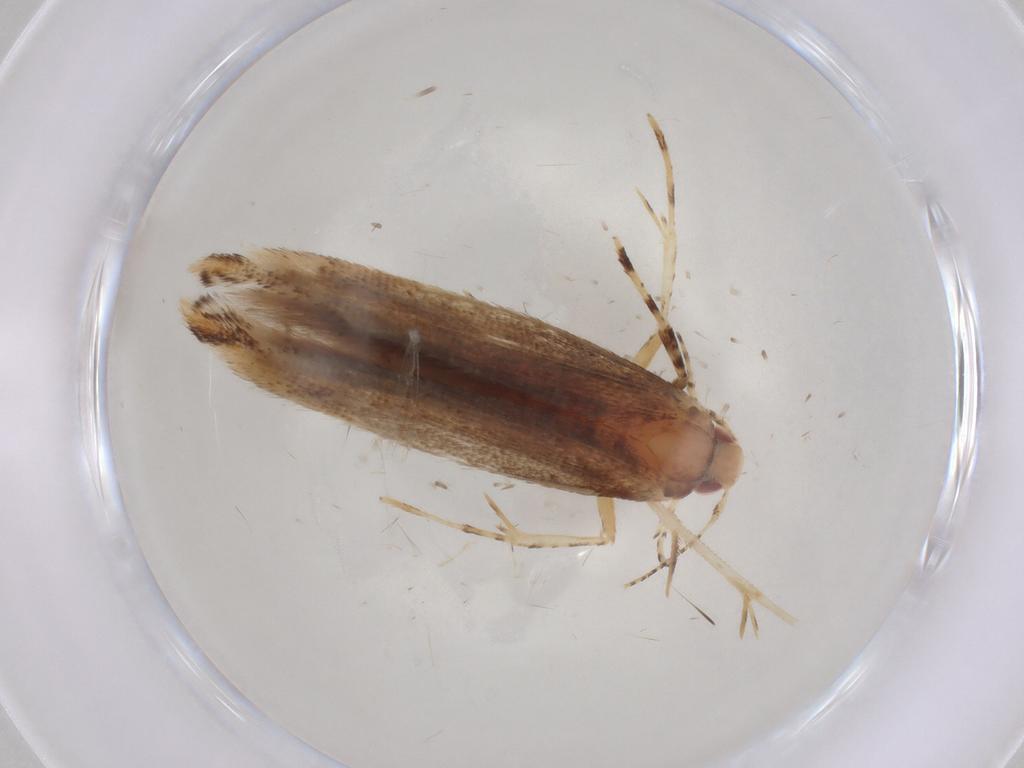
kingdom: Animalia
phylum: Arthropoda
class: Insecta
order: Lepidoptera
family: Cosmopterigidae
